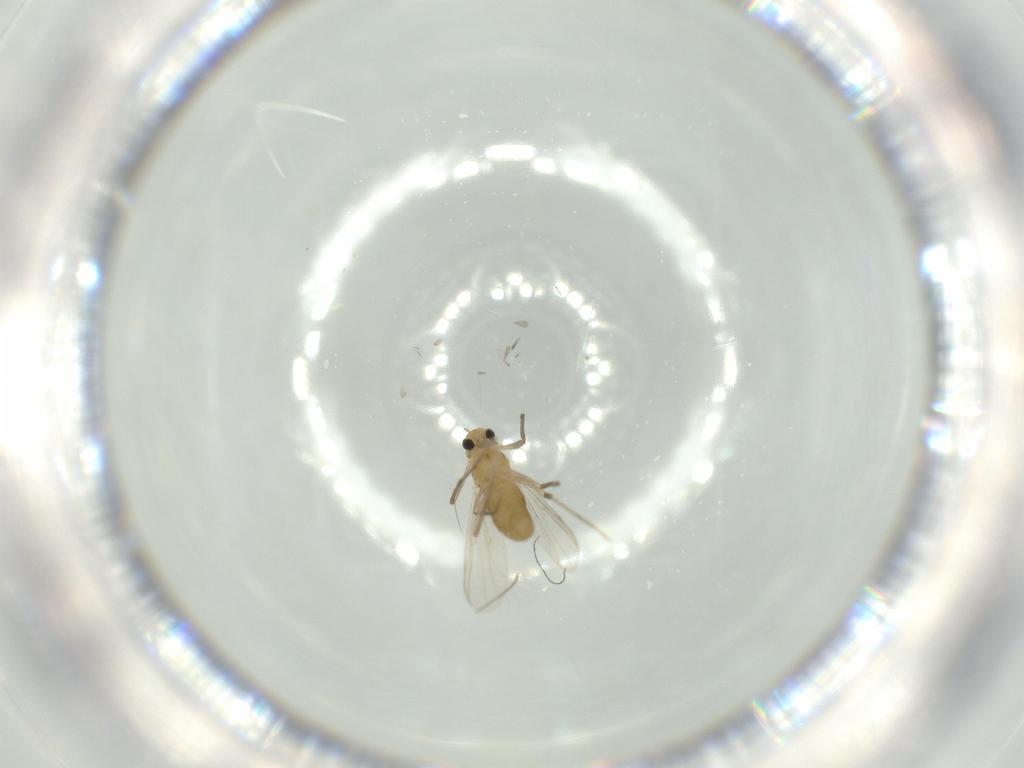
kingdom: Animalia
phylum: Arthropoda
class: Insecta
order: Diptera
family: Chironomidae
